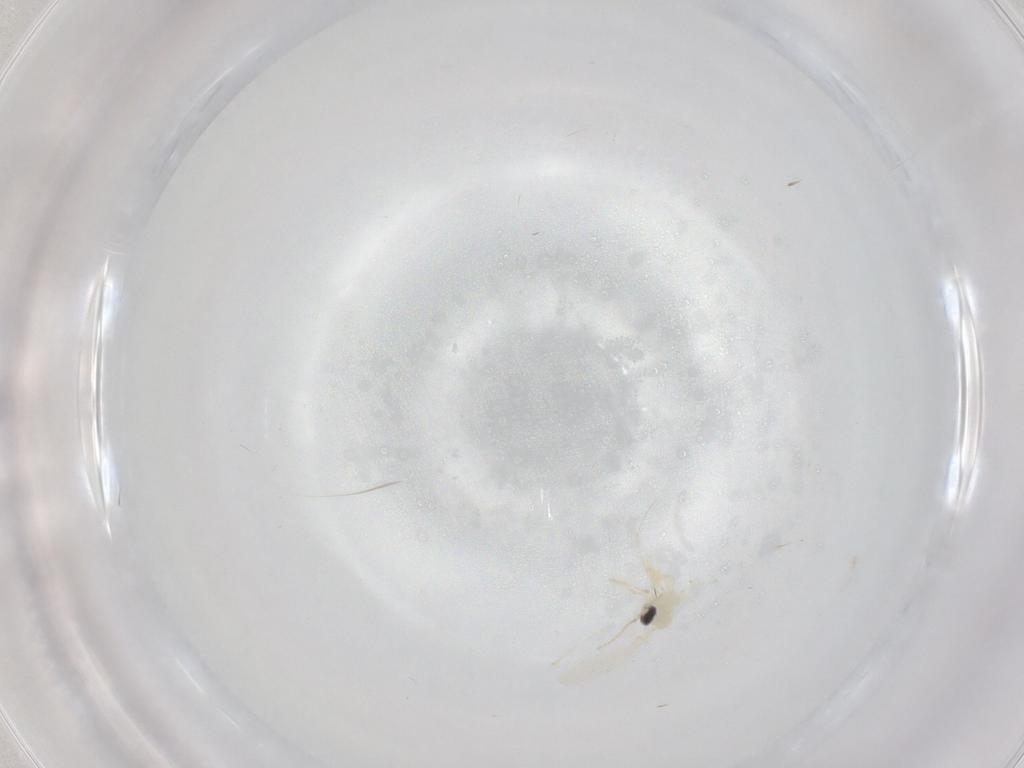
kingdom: Animalia
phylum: Arthropoda
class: Insecta
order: Diptera
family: Cecidomyiidae
